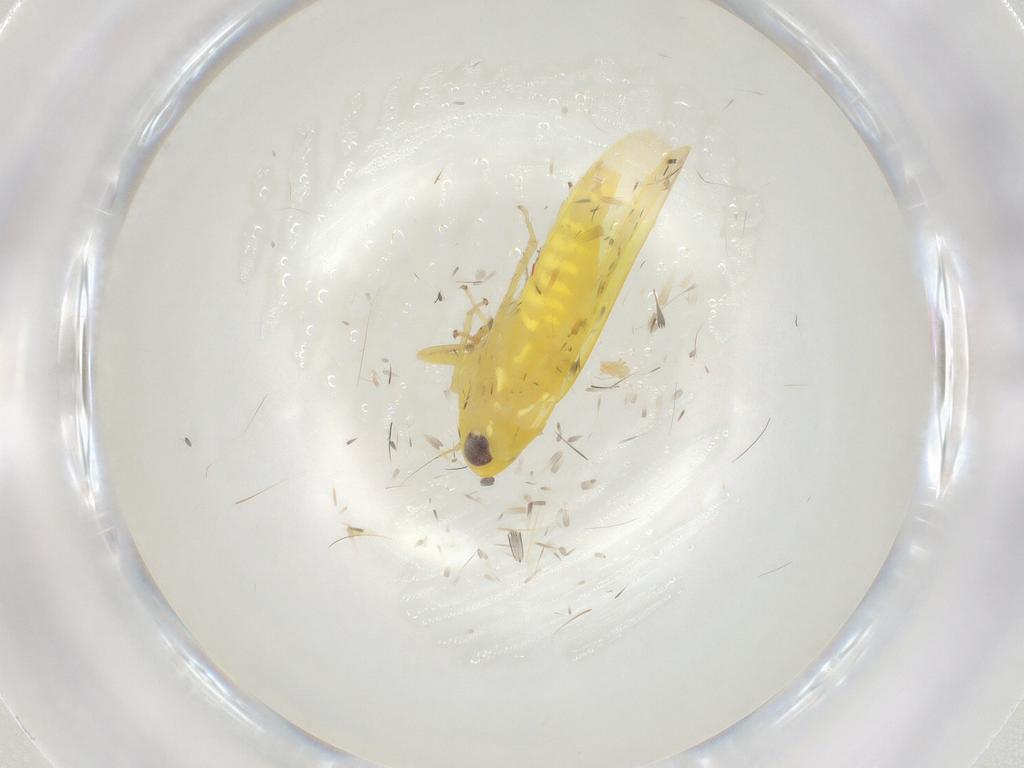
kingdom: Animalia
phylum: Arthropoda
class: Insecta
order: Hemiptera
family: Cicadellidae
